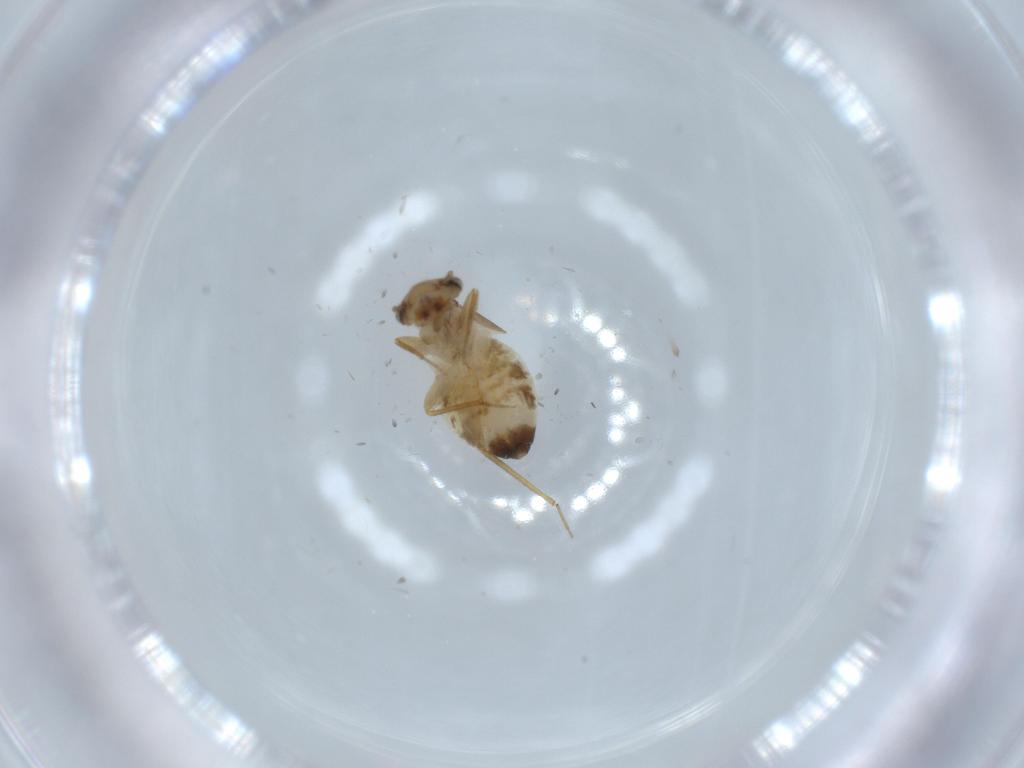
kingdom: Animalia
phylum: Arthropoda
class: Insecta
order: Psocodea
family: Lepidopsocidae
